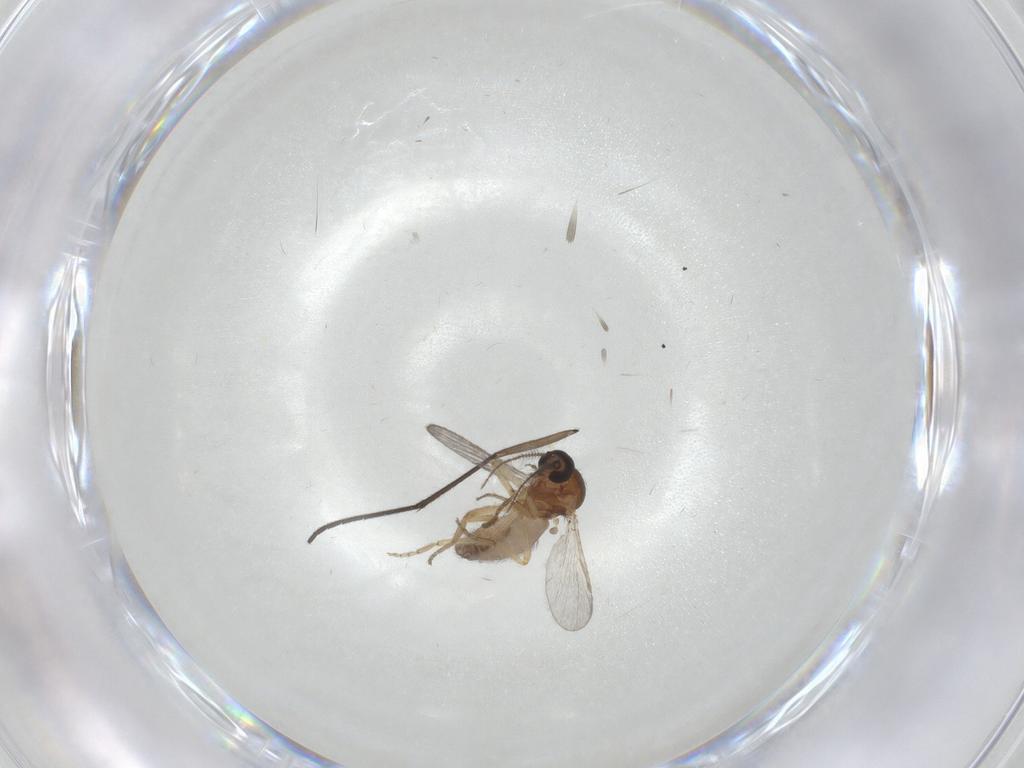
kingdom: Animalia
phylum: Arthropoda
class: Insecta
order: Diptera
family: Ceratopogonidae
